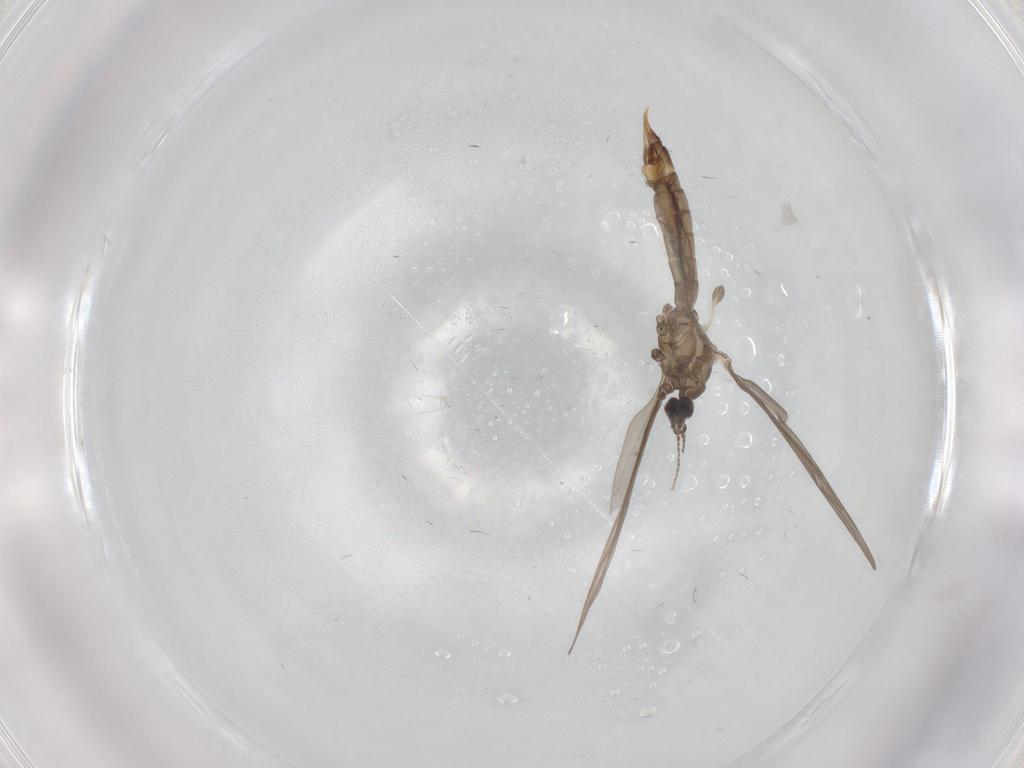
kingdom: Animalia
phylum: Arthropoda
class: Insecta
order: Diptera
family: Limoniidae
